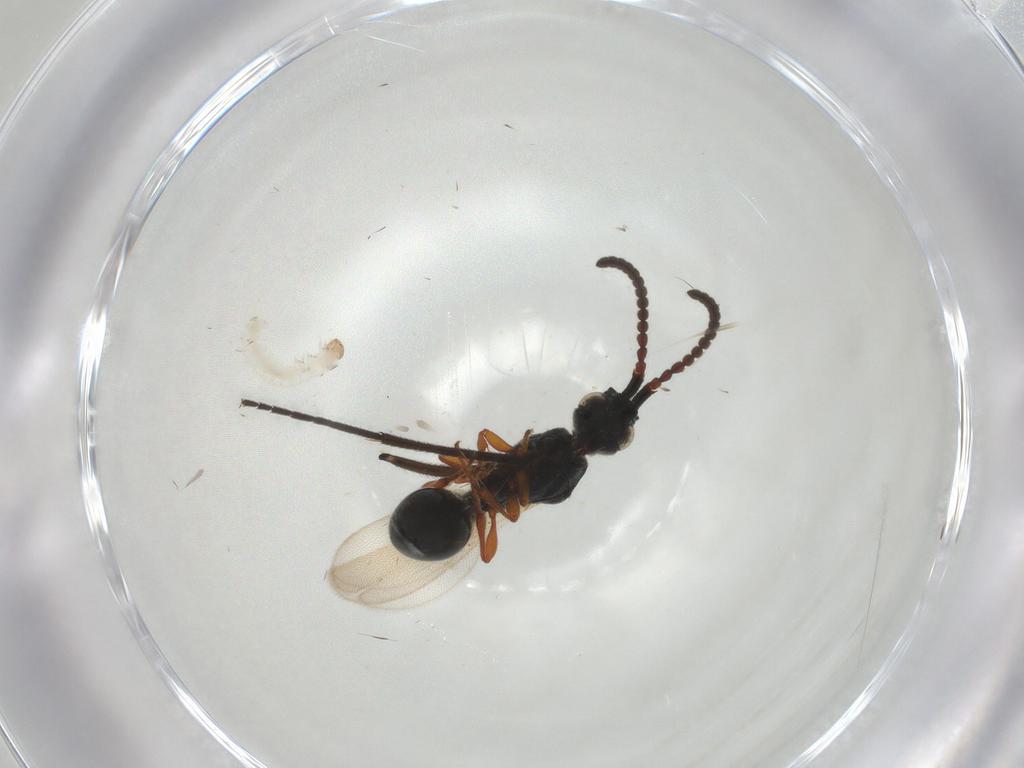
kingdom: Animalia
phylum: Arthropoda
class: Insecta
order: Hymenoptera
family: Diapriidae
